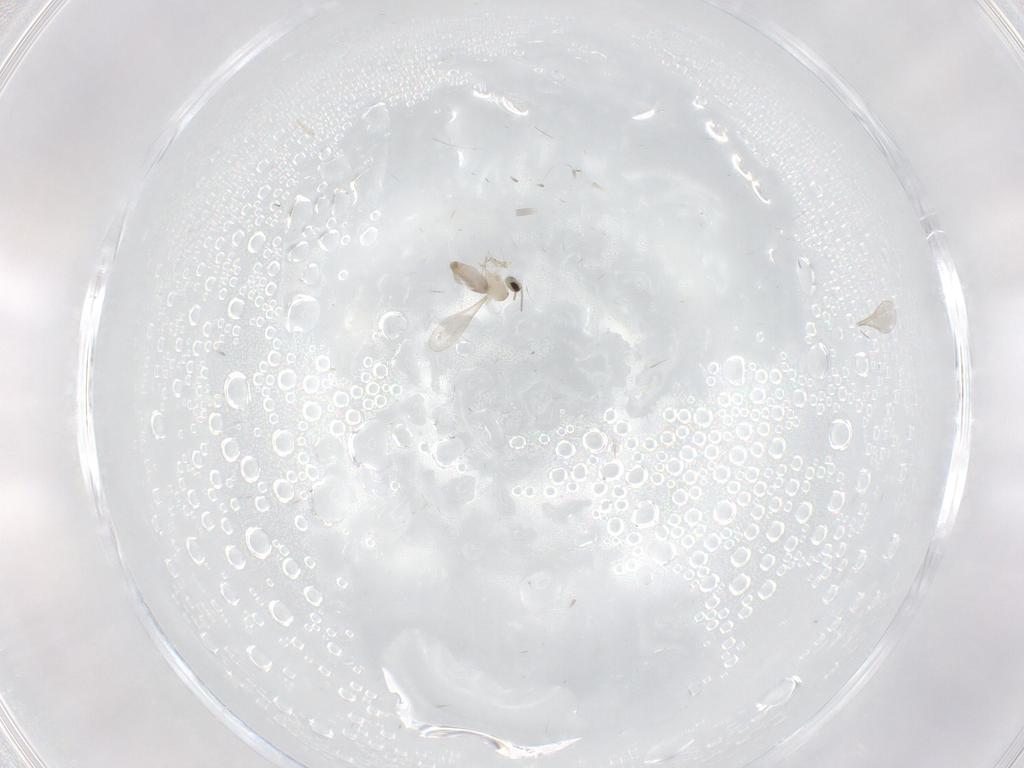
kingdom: Animalia
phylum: Arthropoda
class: Insecta
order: Diptera
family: Cecidomyiidae
